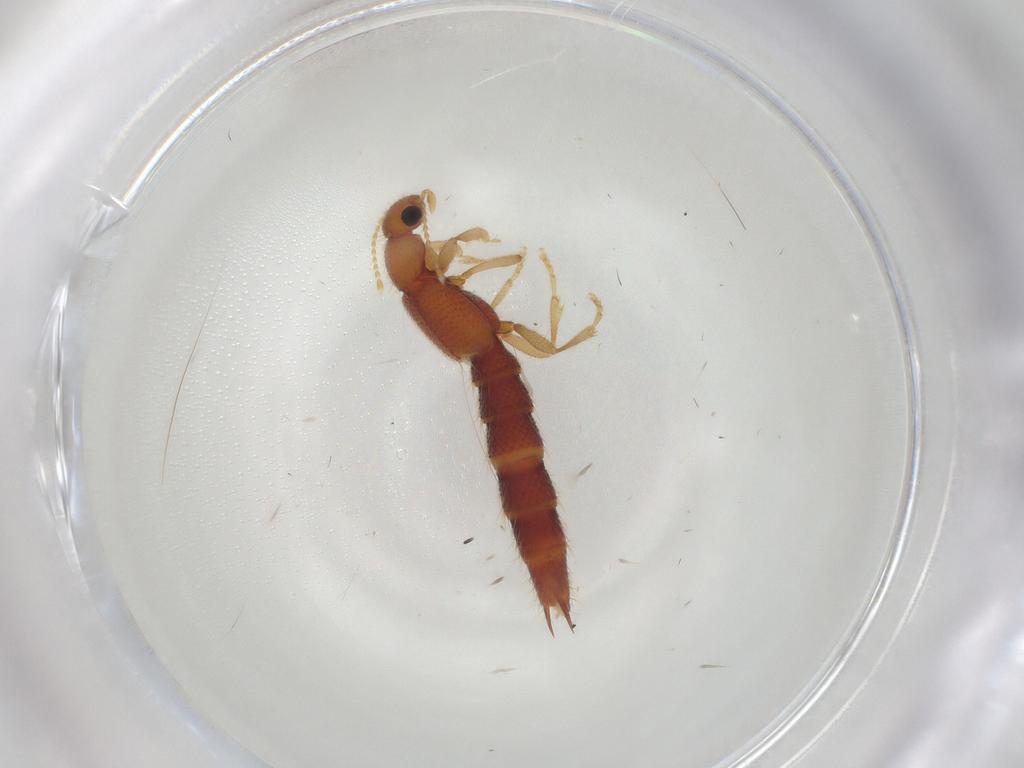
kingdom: Animalia
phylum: Arthropoda
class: Insecta
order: Coleoptera
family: Staphylinidae
